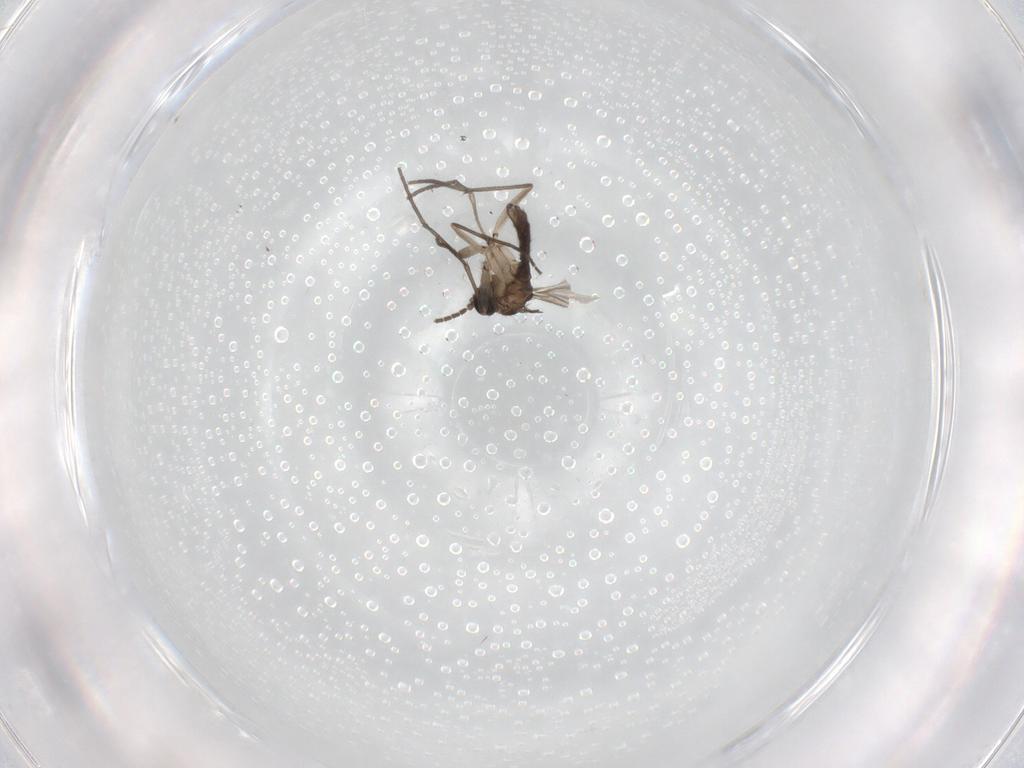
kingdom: Animalia
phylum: Arthropoda
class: Insecta
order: Diptera
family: Sciaridae
